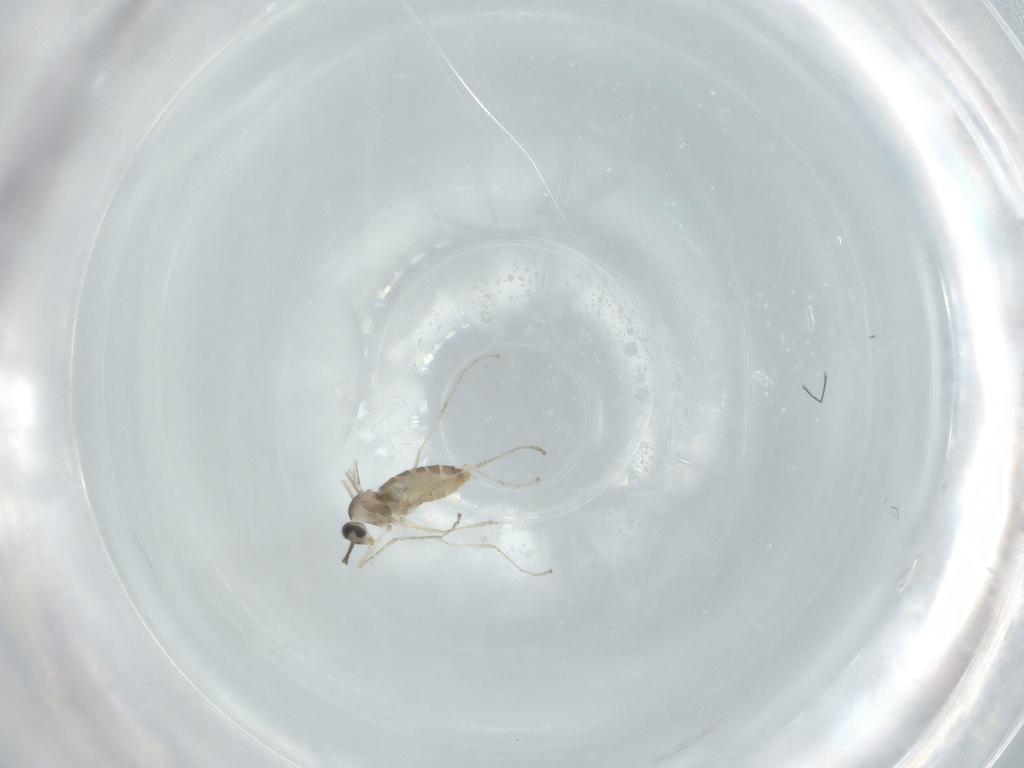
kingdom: Animalia
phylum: Arthropoda
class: Insecta
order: Diptera
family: Cecidomyiidae
